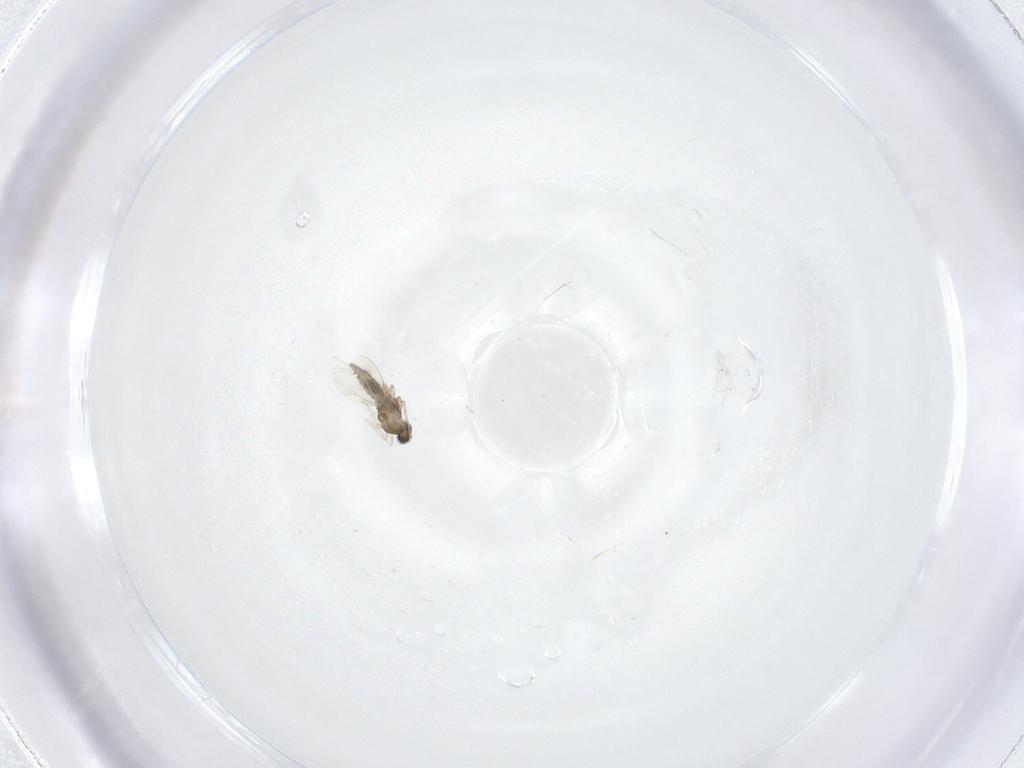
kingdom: Animalia
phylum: Arthropoda
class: Insecta
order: Diptera
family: Cecidomyiidae
